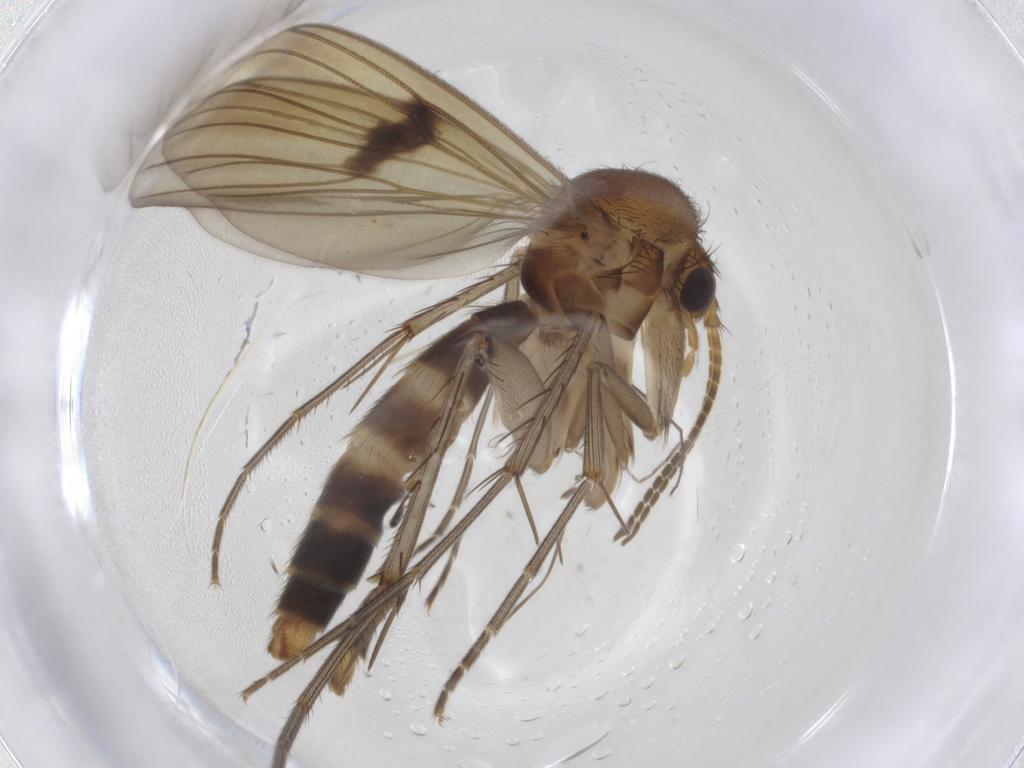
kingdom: Animalia
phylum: Arthropoda
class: Insecta
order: Diptera
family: Mycetophilidae
